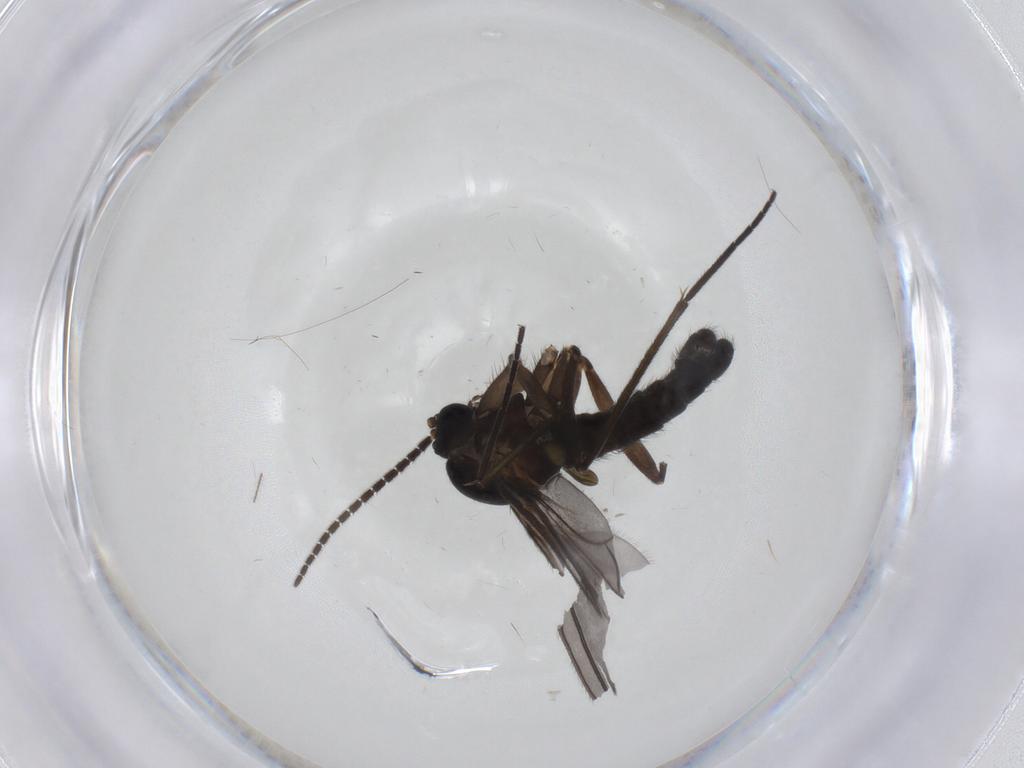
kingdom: Animalia
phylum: Arthropoda
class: Insecta
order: Diptera
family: Sciaridae
